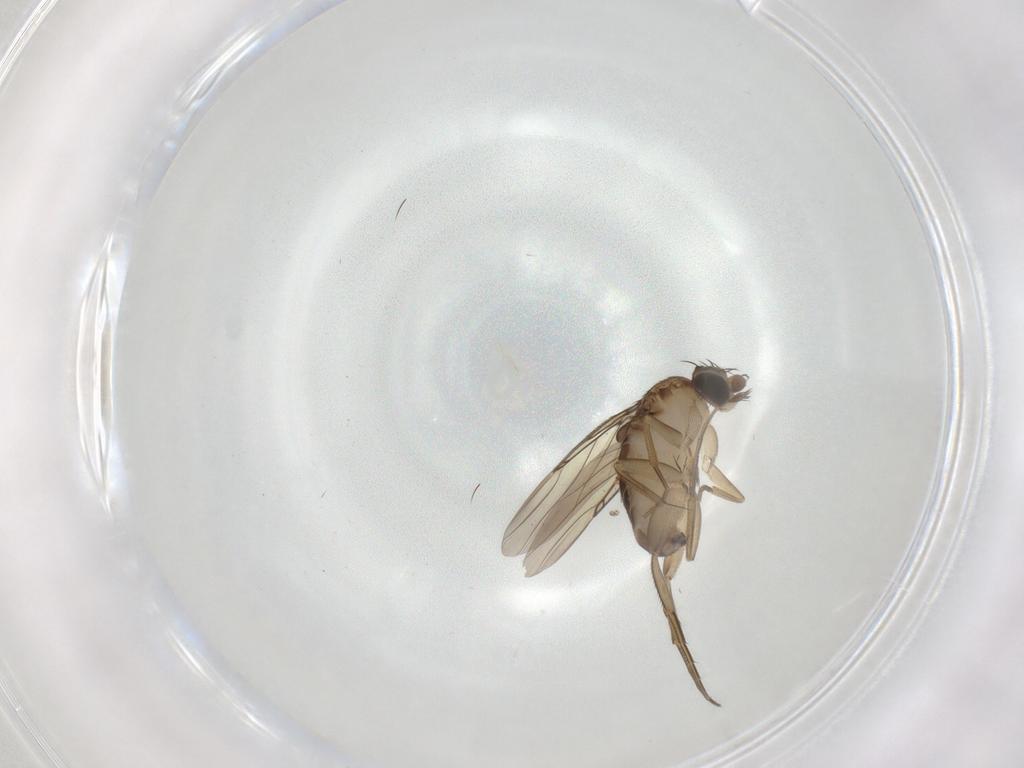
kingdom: Animalia
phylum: Arthropoda
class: Insecta
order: Diptera
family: Phoridae
